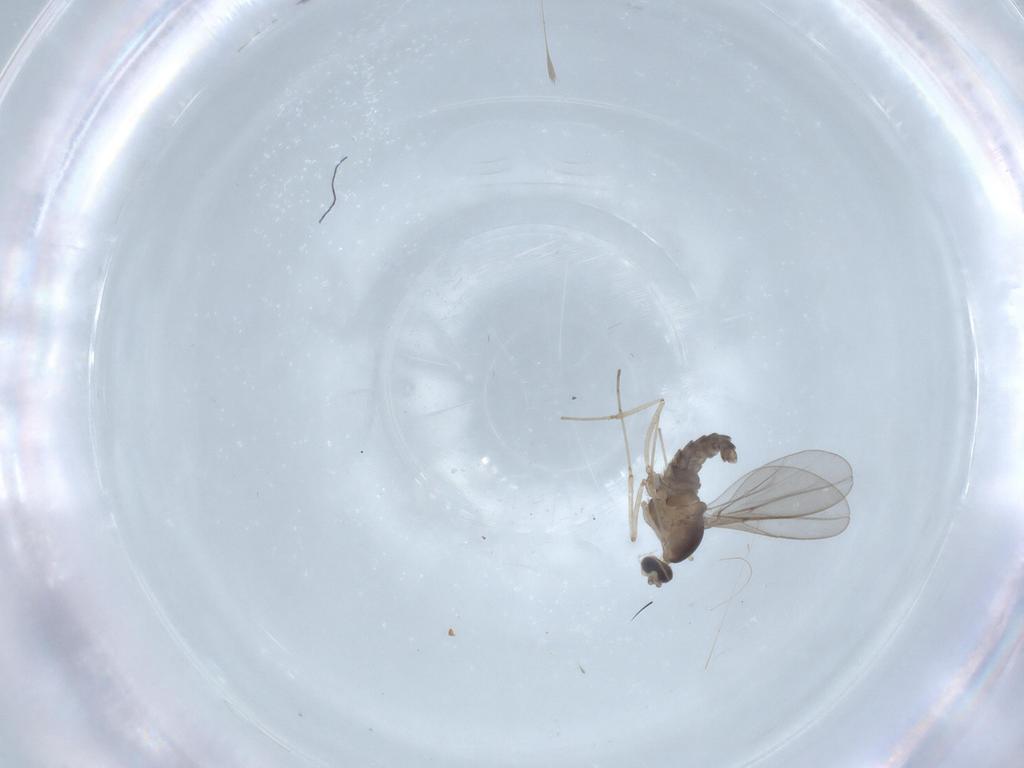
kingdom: Animalia
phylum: Arthropoda
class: Insecta
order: Diptera
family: Cecidomyiidae
